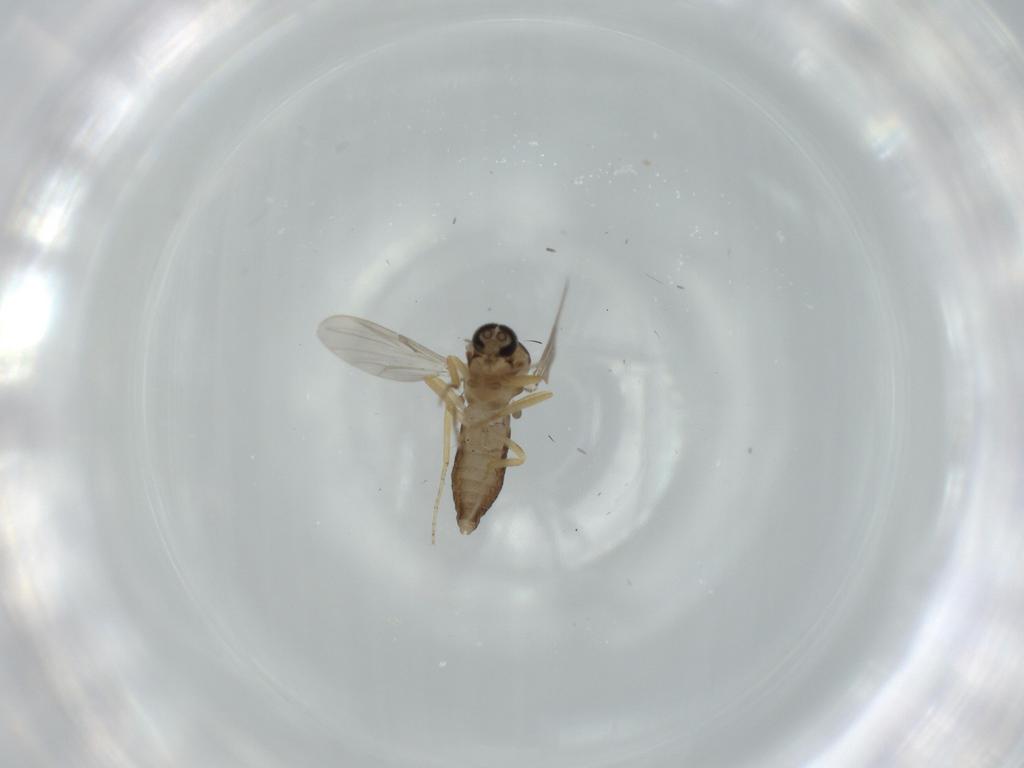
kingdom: Animalia
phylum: Arthropoda
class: Insecta
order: Diptera
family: Ceratopogonidae
